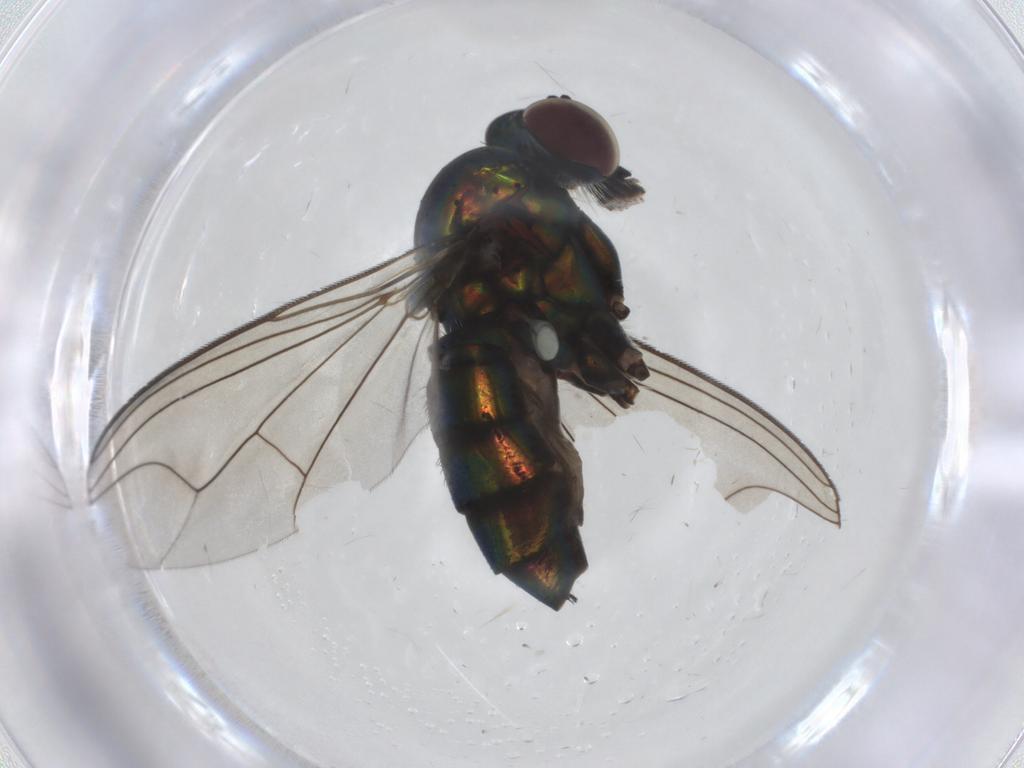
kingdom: Animalia
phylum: Arthropoda
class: Insecta
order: Diptera
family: Dolichopodidae
